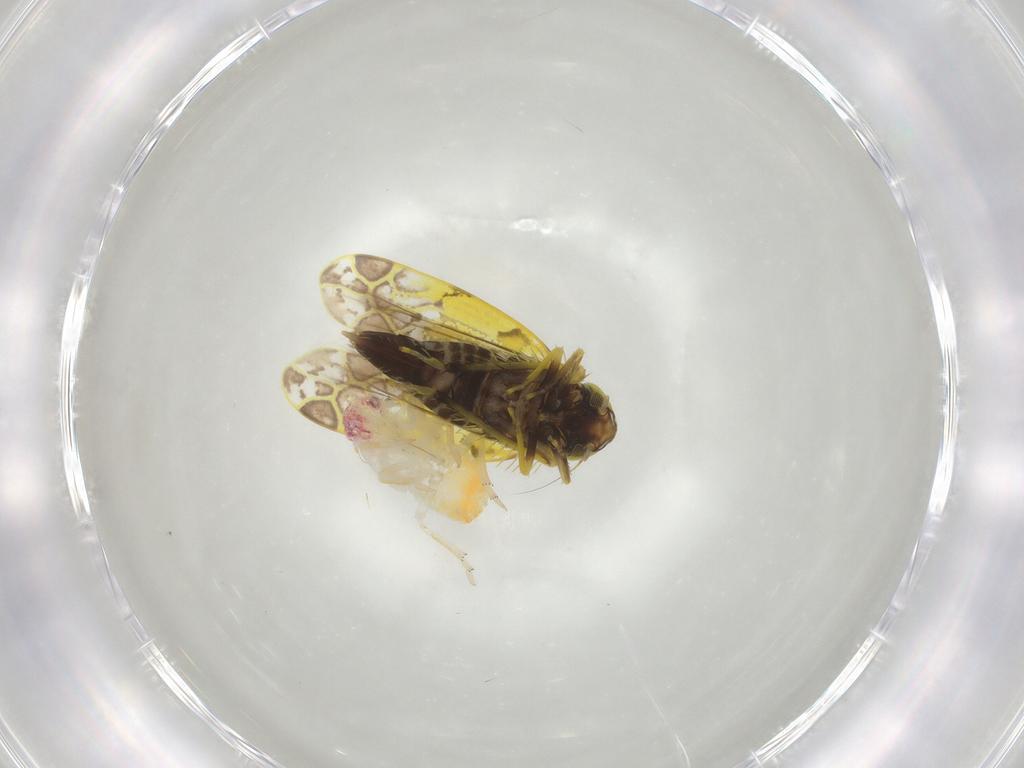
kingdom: Animalia
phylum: Arthropoda
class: Insecta
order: Hemiptera
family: Cicadellidae
